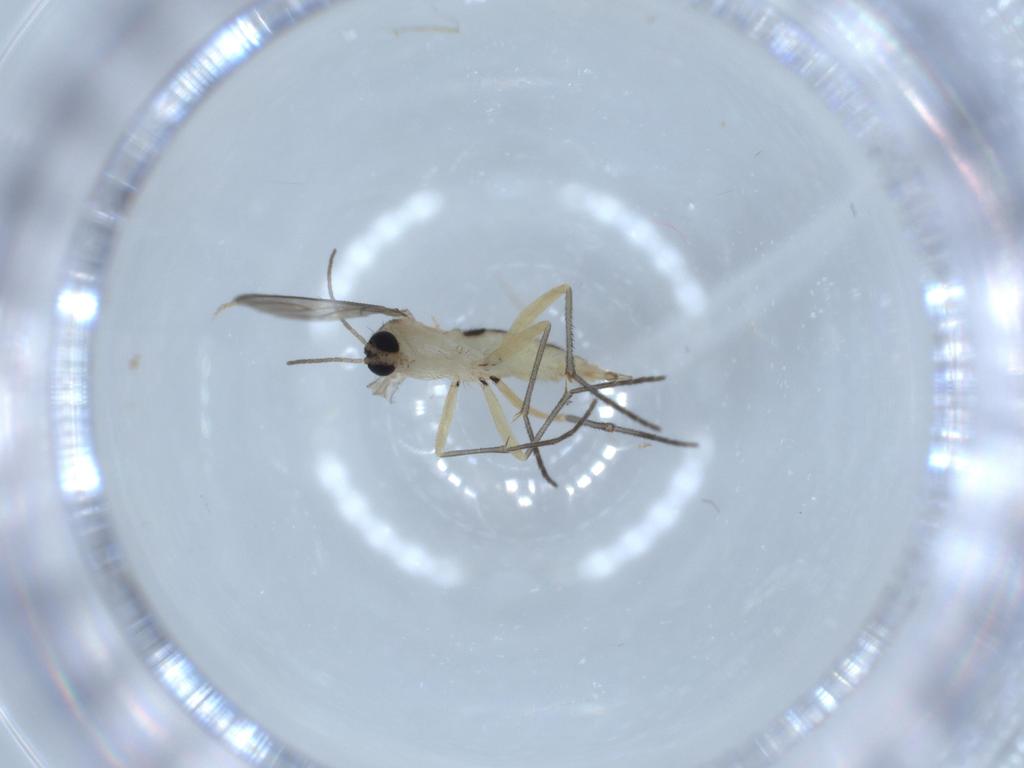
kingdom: Animalia
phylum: Arthropoda
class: Insecta
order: Diptera
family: Sciaridae
